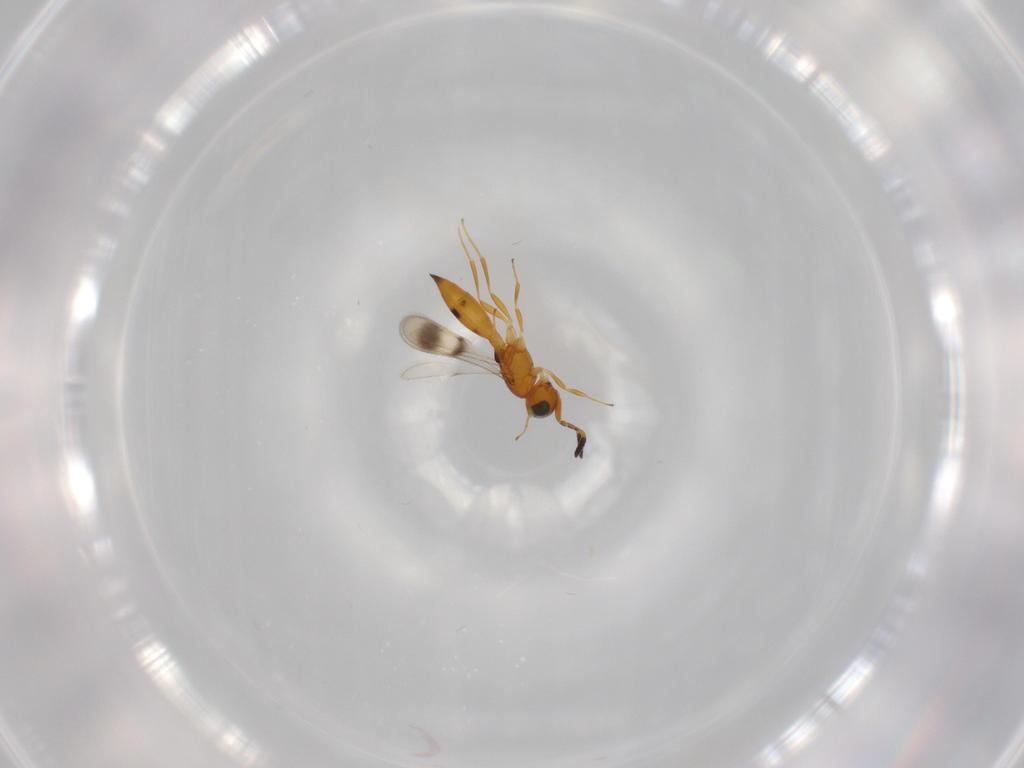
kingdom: Animalia
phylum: Arthropoda
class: Insecta
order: Hymenoptera
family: Scelionidae
